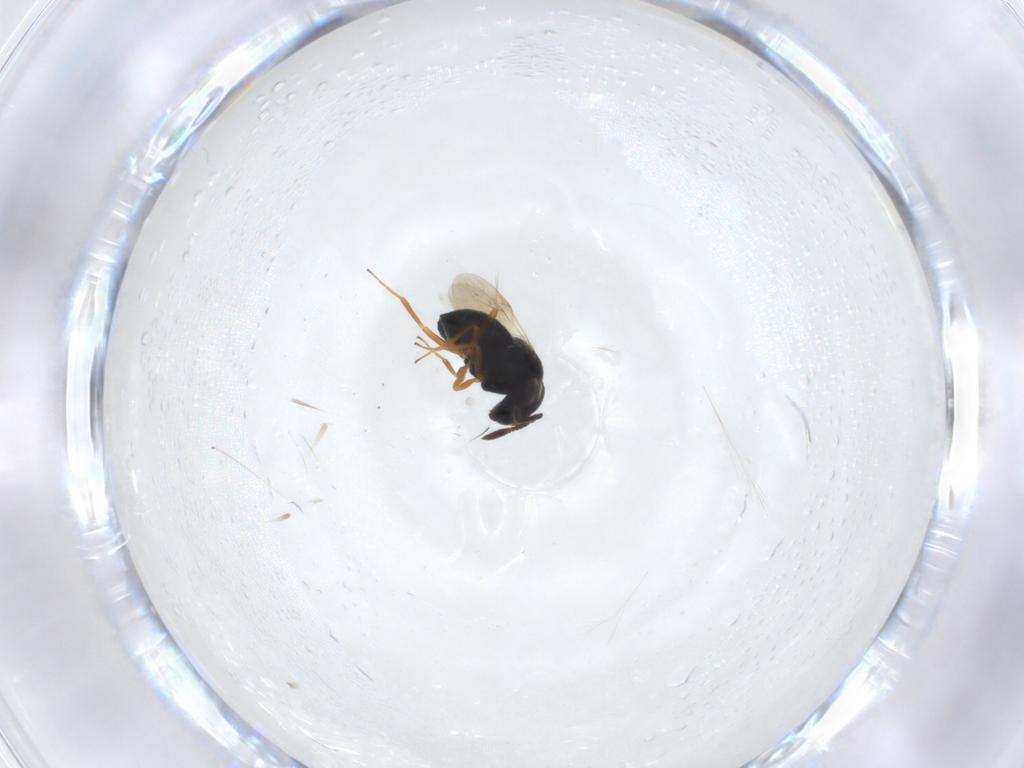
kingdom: Animalia
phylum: Arthropoda
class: Insecta
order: Hymenoptera
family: Scelionidae
